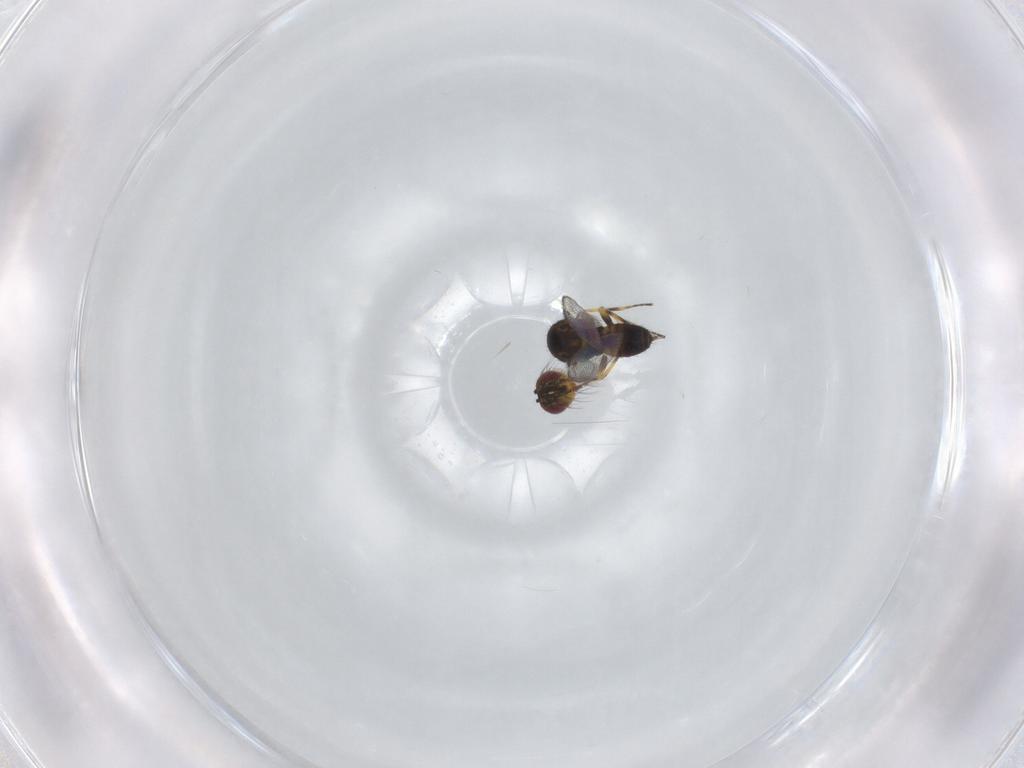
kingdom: Animalia
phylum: Arthropoda
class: Insecta
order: Hymenoptera
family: Eulophidae
